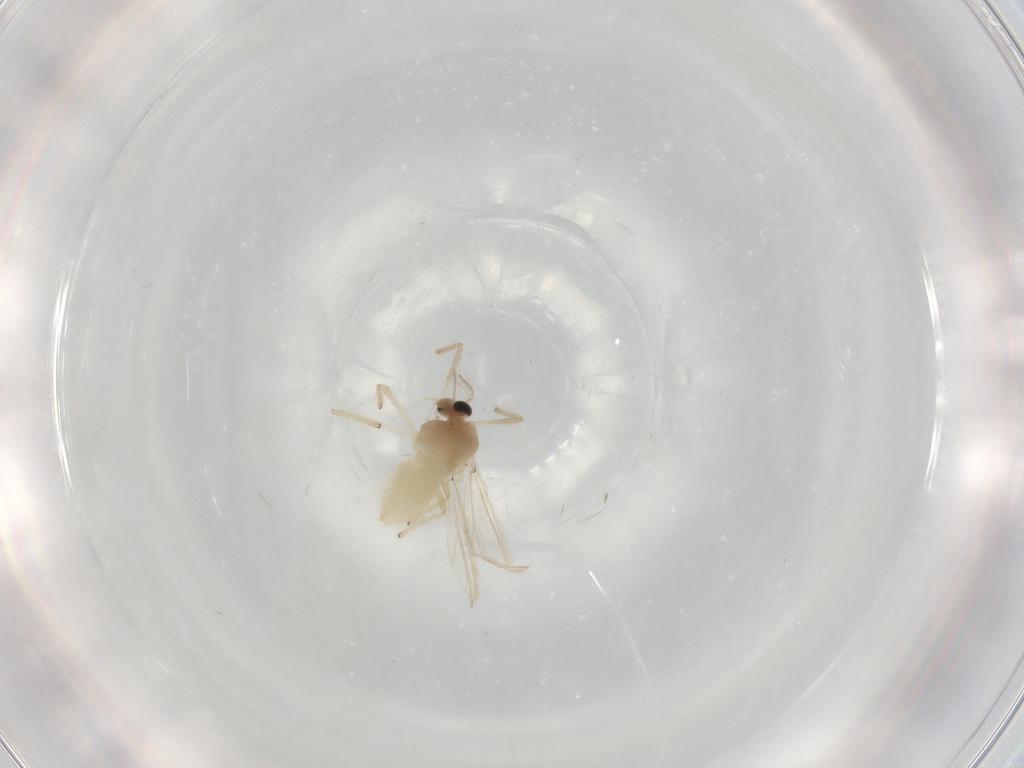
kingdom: Animalia
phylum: Arthropoda
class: Insecta
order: Diptera
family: Chironomidae
